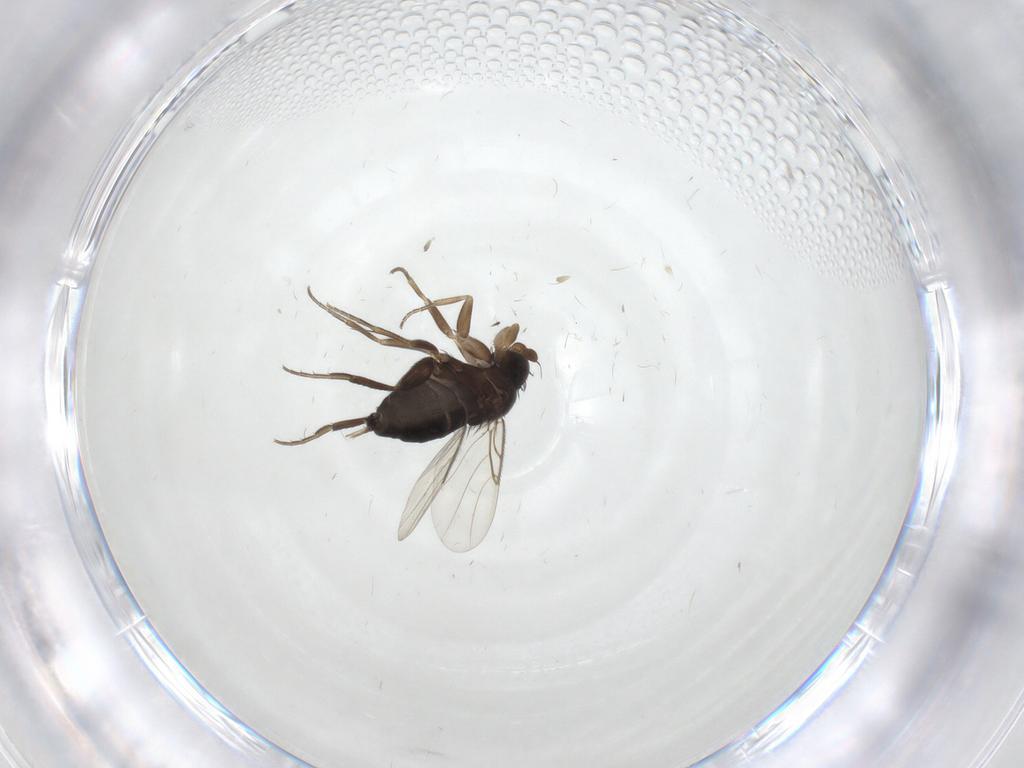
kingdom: Animalia
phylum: Arthropoda
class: Insecta
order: Diptera
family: Phoridae
